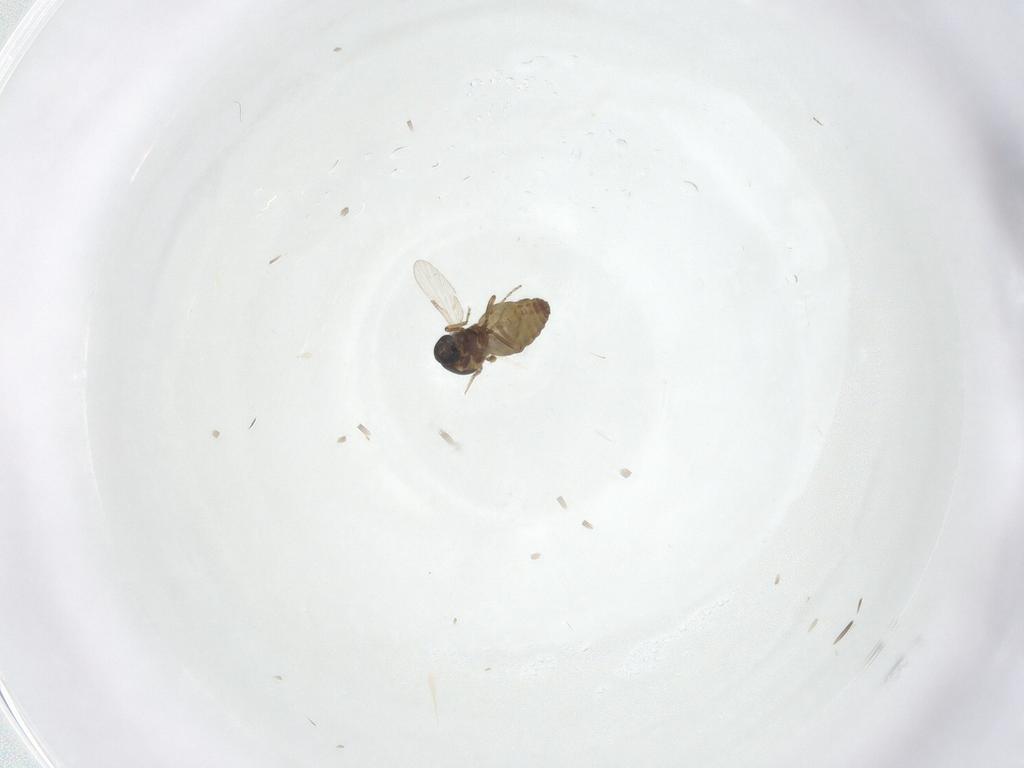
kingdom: Animalia
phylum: Arthropoda
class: Insecta
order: Diptera
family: Ceratopogonidae
